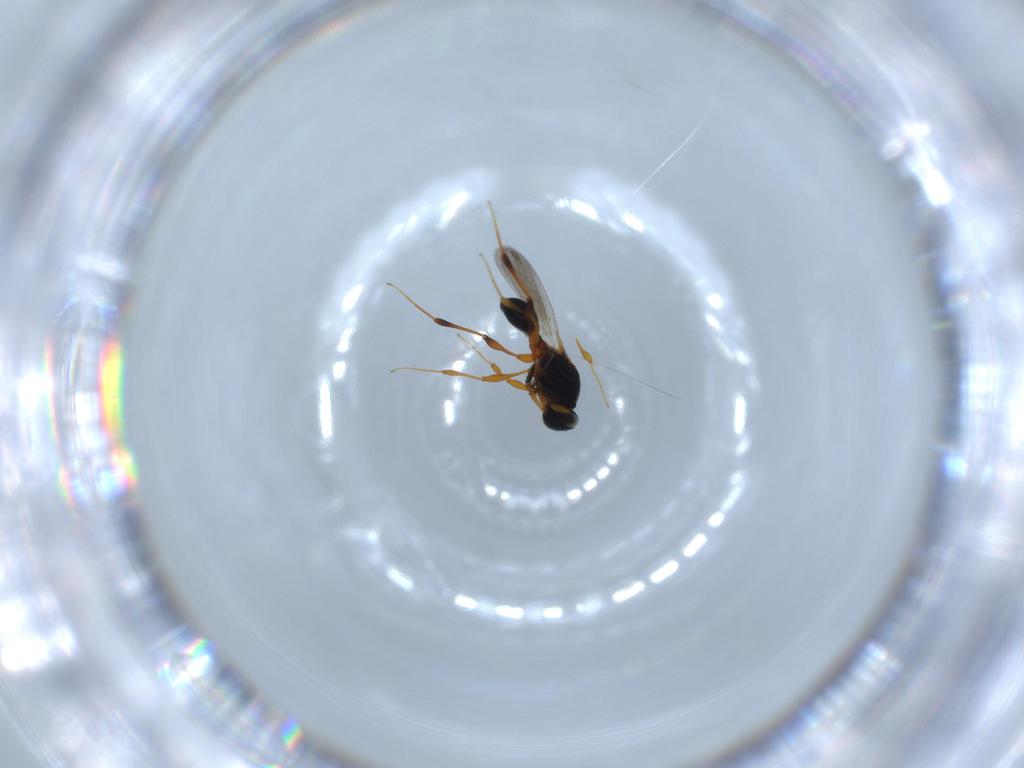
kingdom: Animalia
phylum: Arthropoda
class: Insecta
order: Hymenoptera
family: Platygastridae
